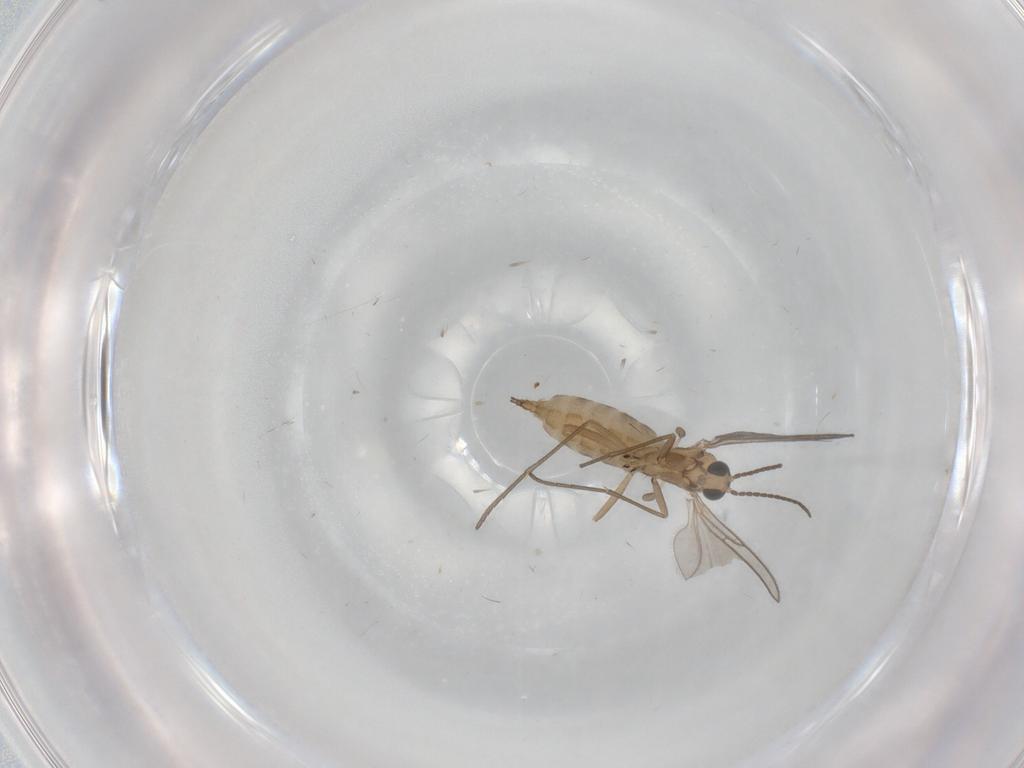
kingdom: Animalia
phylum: Arthropoda
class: Insecta
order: Diptera
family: Sciaridae
